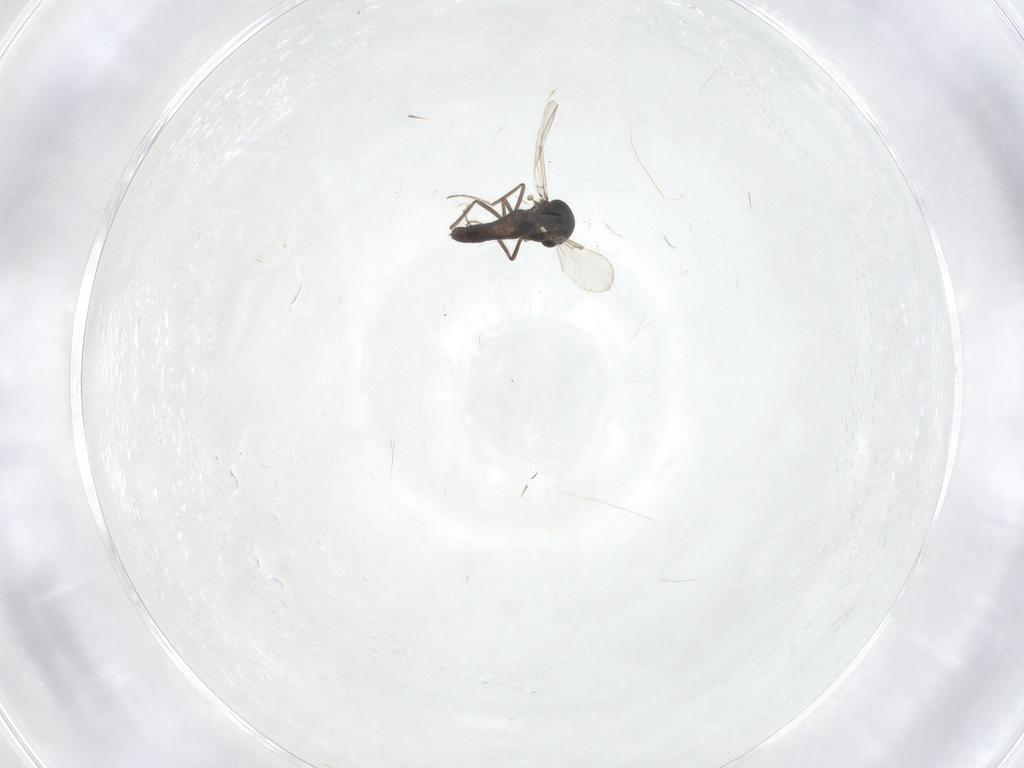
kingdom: Animalia
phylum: Arthropoda
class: Insecta
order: Diptera
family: Ceratopogonidae
